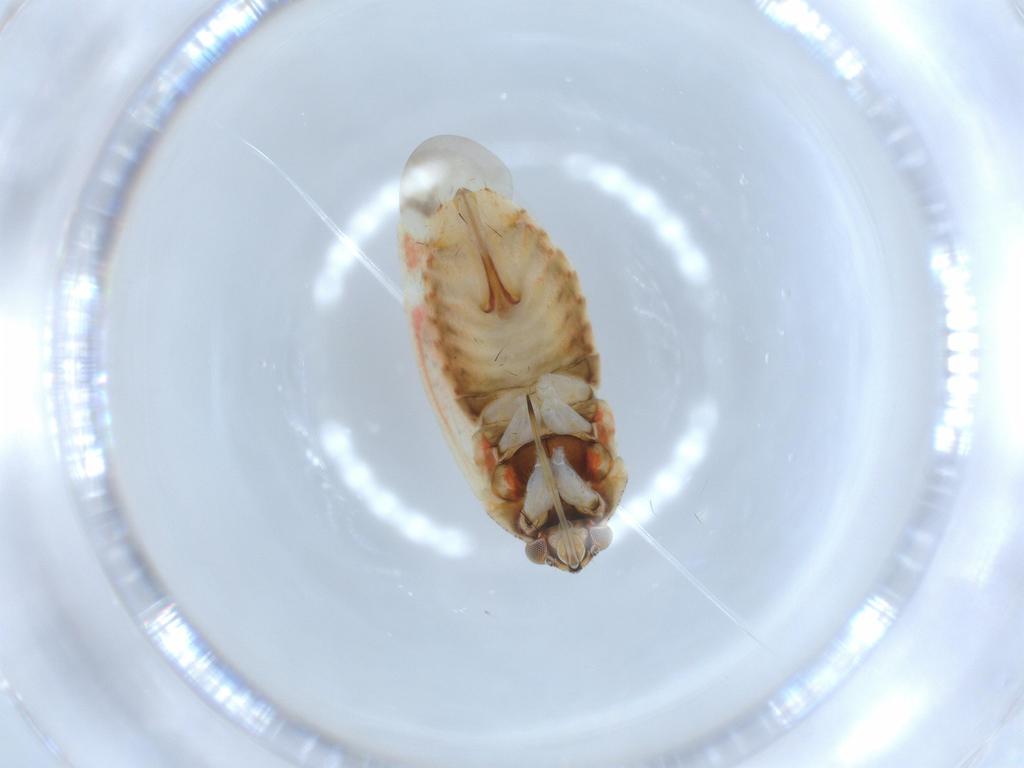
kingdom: Animalia
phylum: Arthropoda
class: Insecta
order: Hemiptera
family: Miridae
